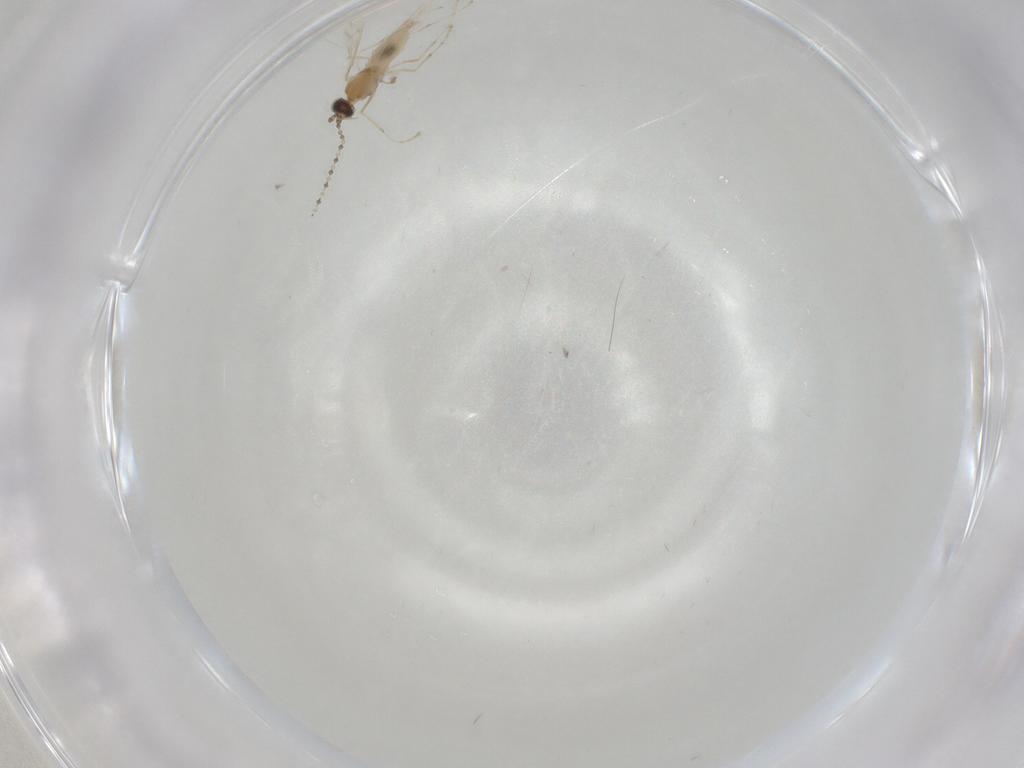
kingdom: Animalia
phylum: Arthropoda
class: Insecta
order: Diptera
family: Cecidomyiidae
